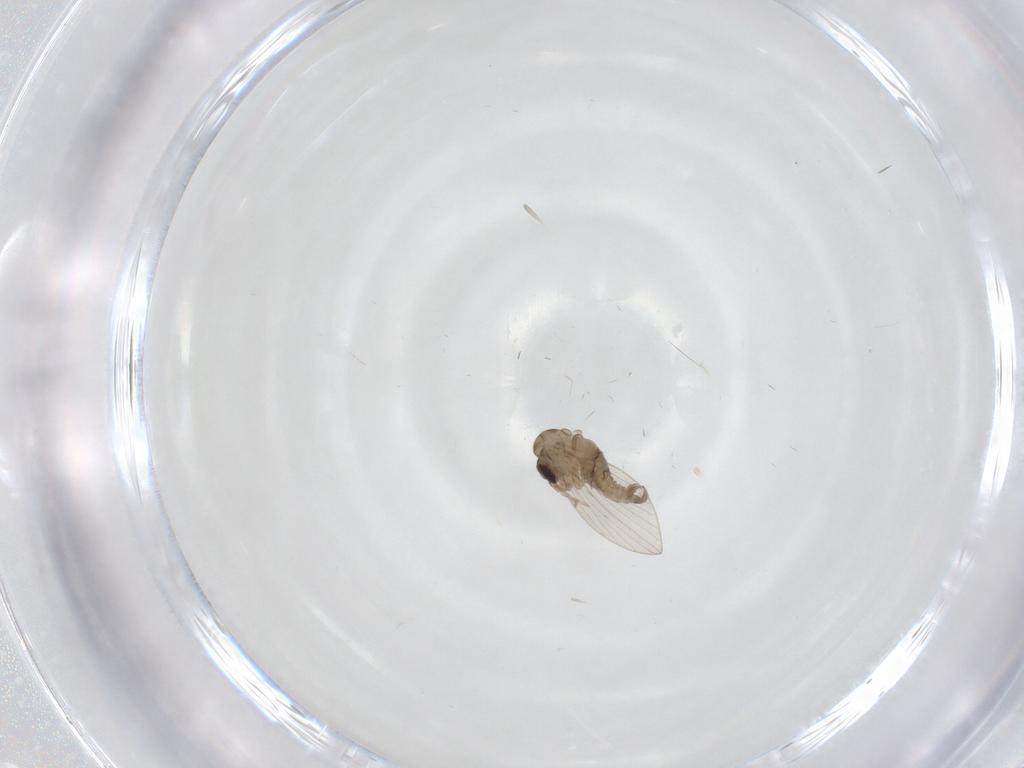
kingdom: Animalia
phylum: Arthropoda
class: Insecta
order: Diptera
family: Psychodidae
